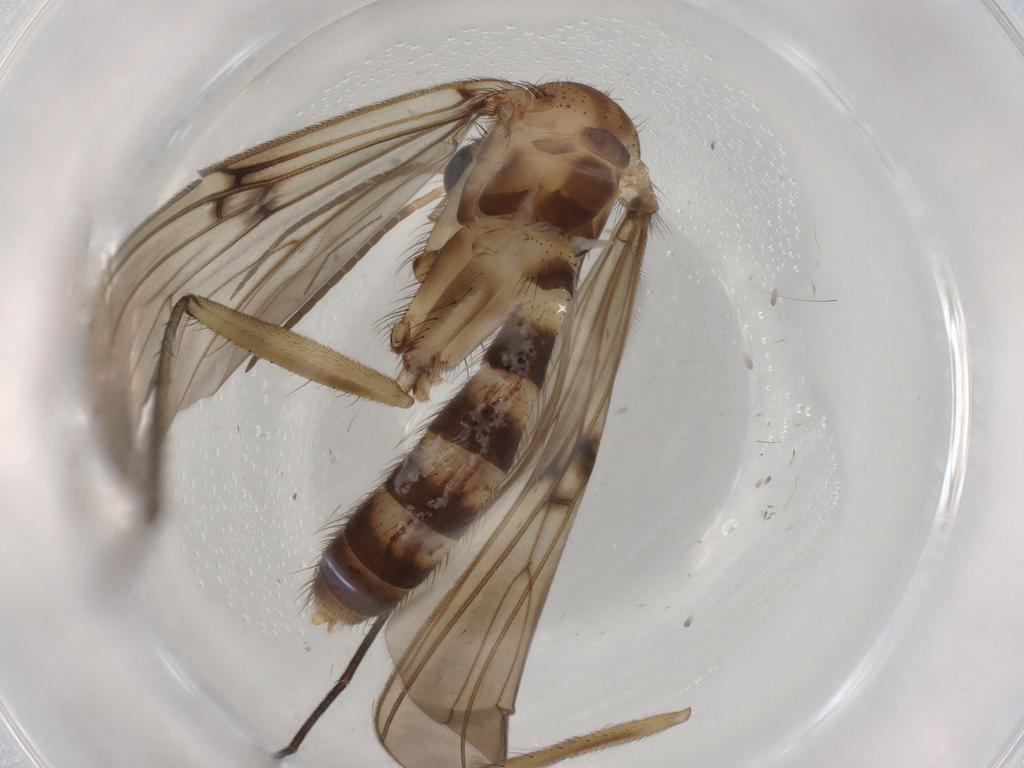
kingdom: Animalia
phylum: Arthropoda
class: Insecta
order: Diptera
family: Mycetophilidae
